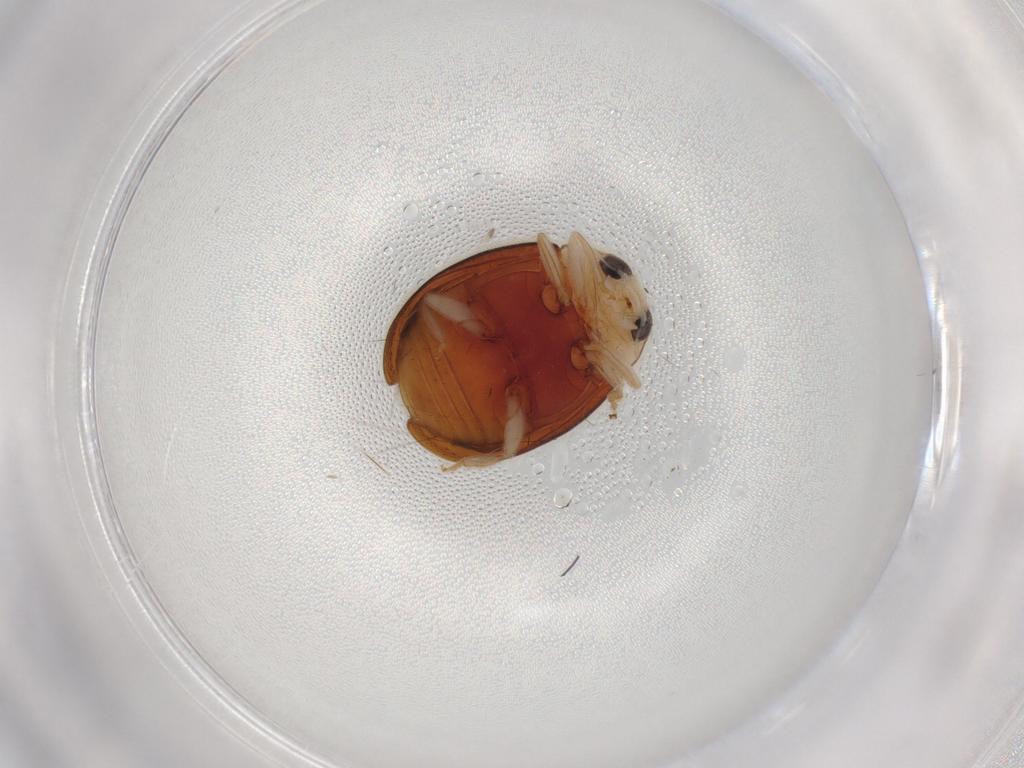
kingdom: Animalia
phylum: Arthropoda
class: Insecta
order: Coleoptera
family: Coccinellidae
